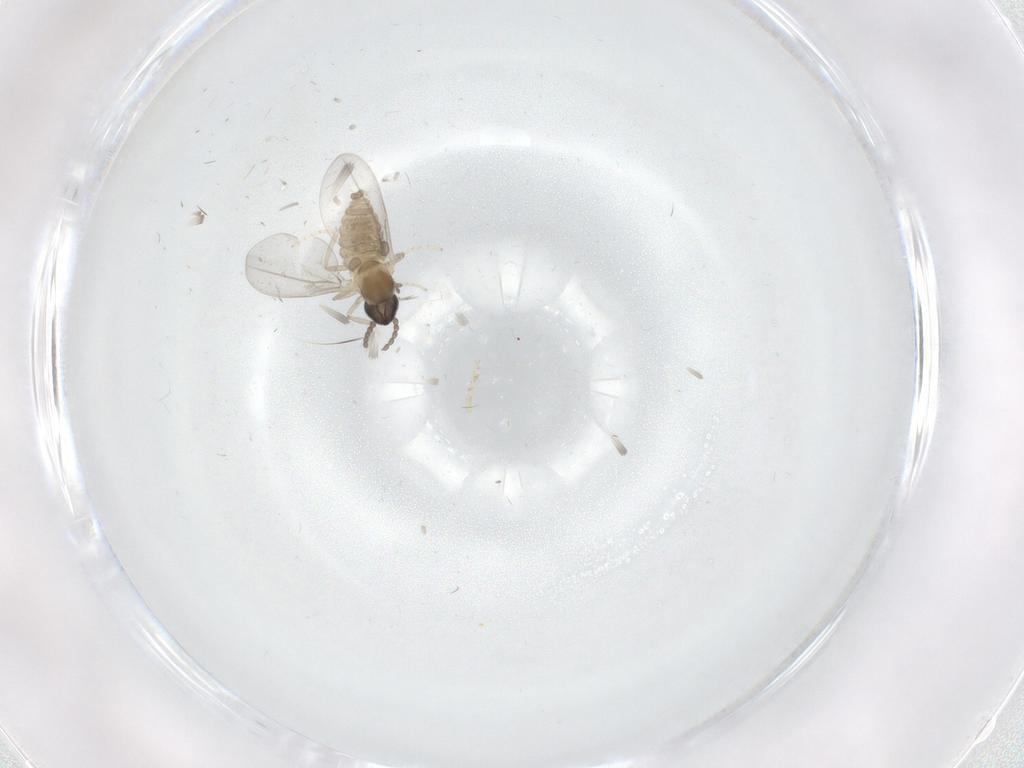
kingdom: Animalia
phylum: Arthropoda
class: Insecta
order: Diptera
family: Cecidomyiidae
